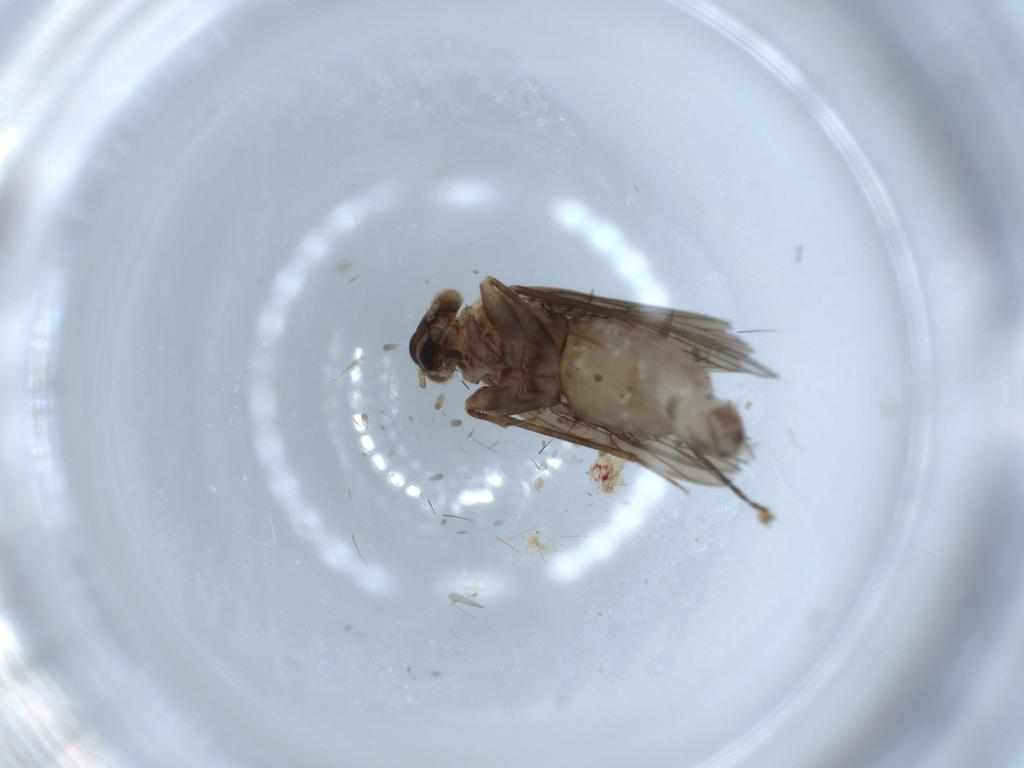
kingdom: Animalia
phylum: Arthropoda
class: Insecta
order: Psocodea
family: Lepidopsocidae
